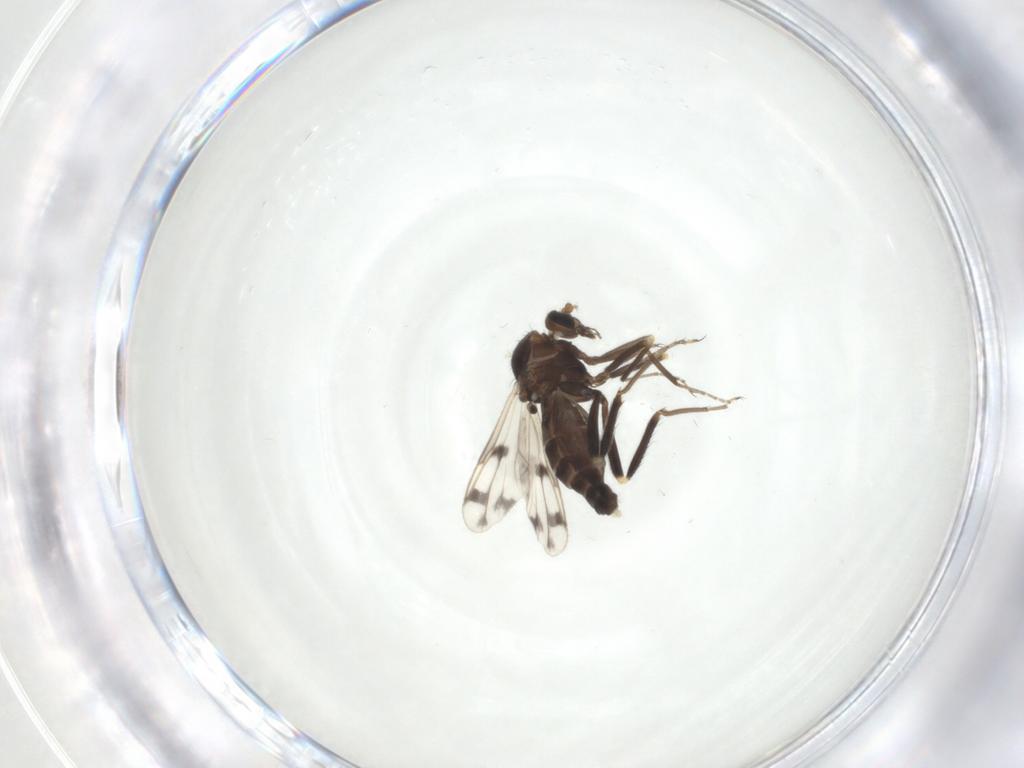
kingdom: Animalia
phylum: Arthropoda
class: Insecta
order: Diptera
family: Ceratopogonidae
